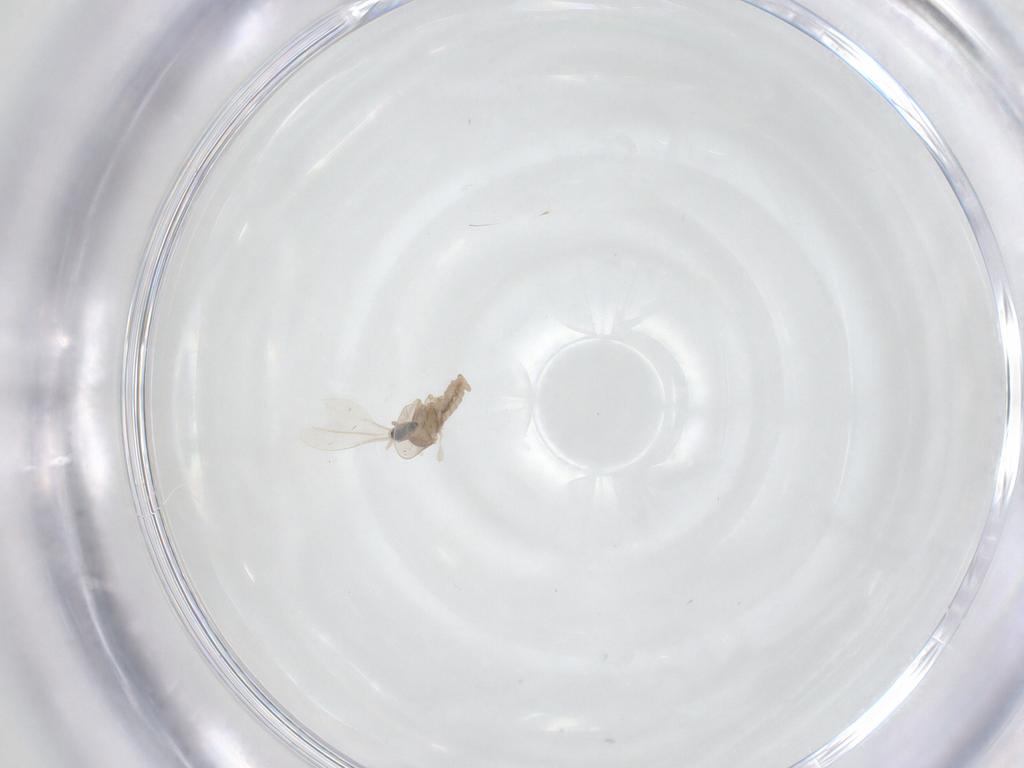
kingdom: Animalia
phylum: Arthropoda
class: Insecta
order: Diptera
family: Cecidomyiidae
